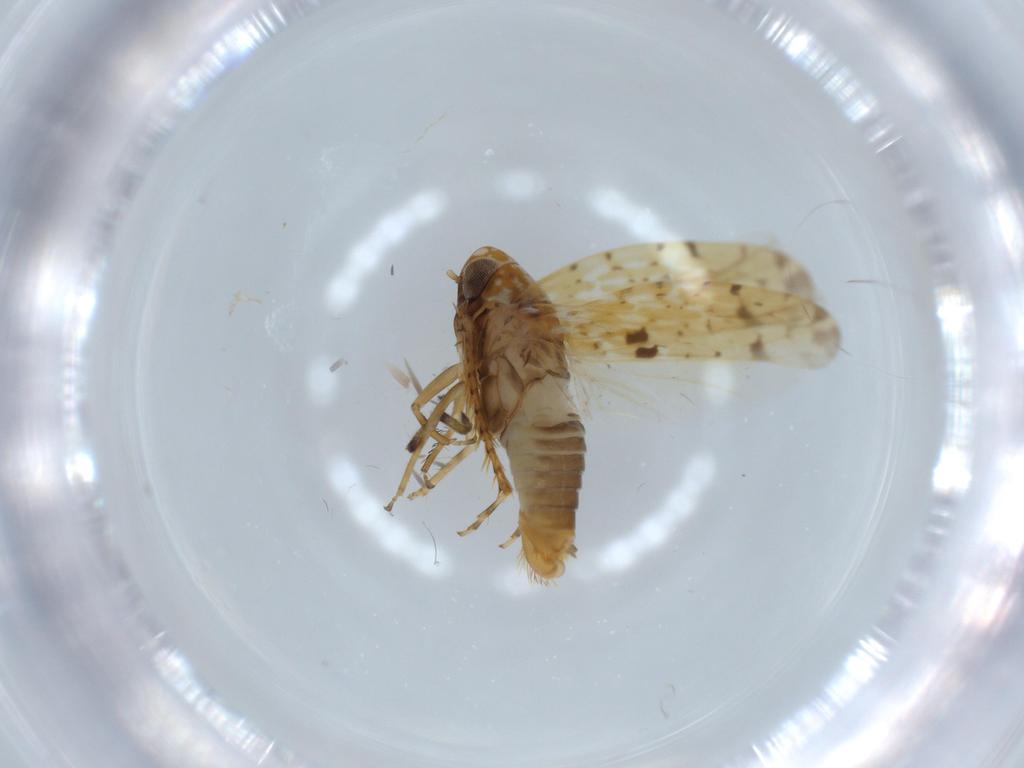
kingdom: Animalia
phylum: Arthropoda
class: Insecta
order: Hemiptera
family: Cicadellidae
